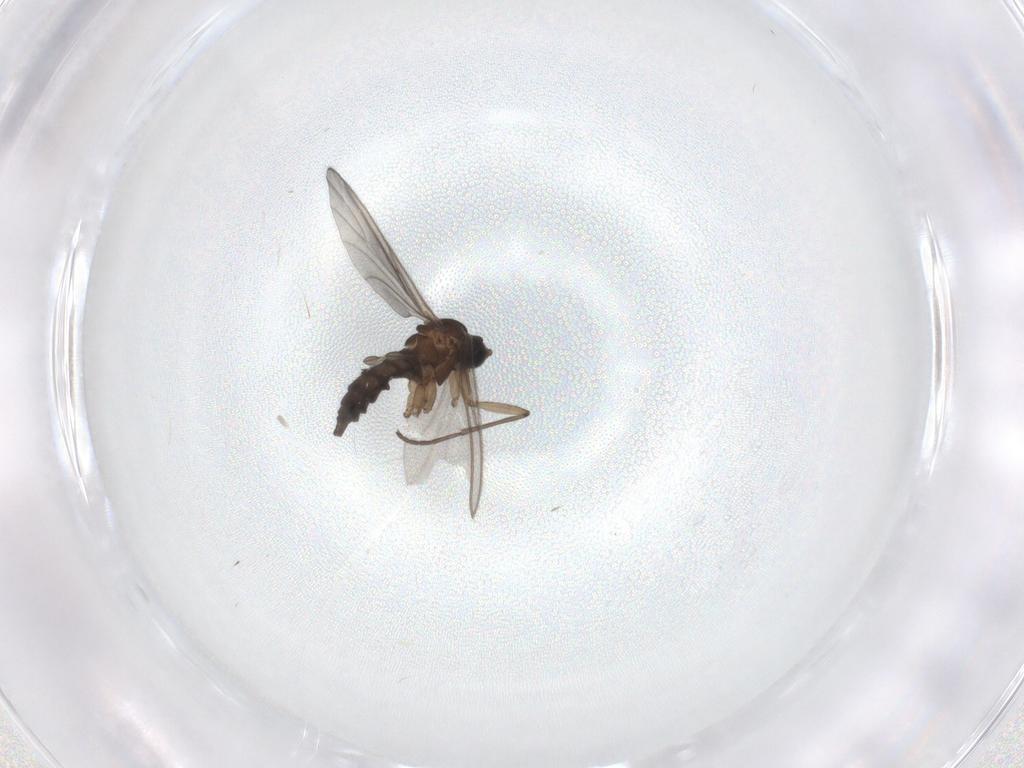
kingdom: Animalia
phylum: Arthropoda
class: Insecta
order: Diptera
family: Sciaridae
